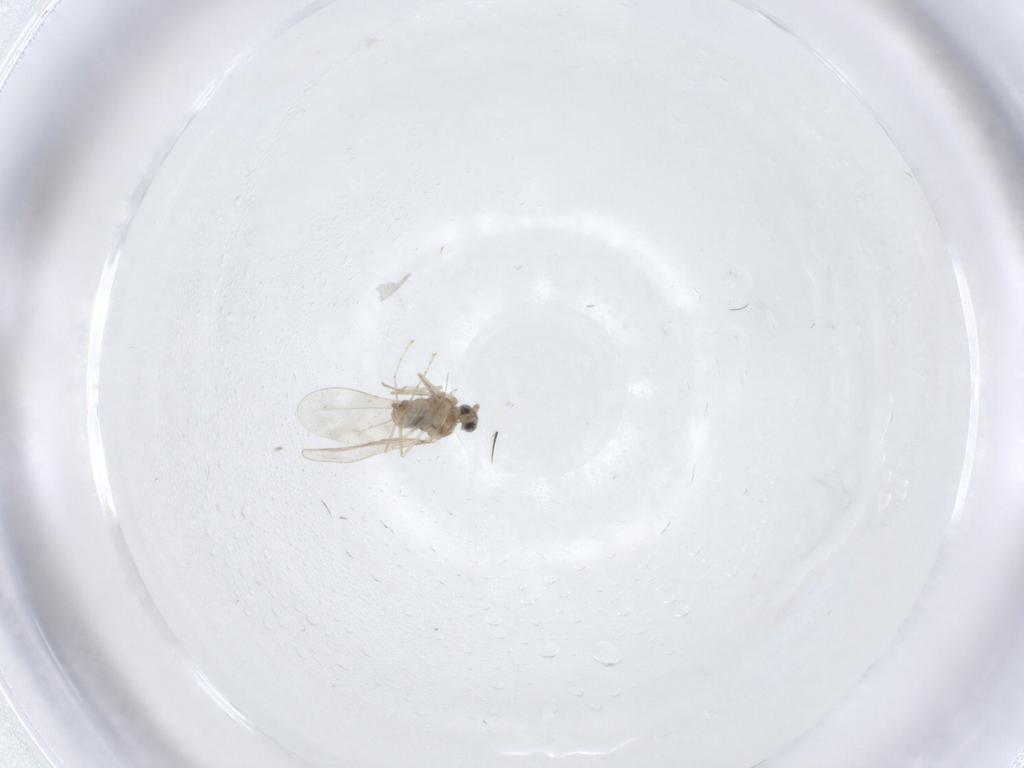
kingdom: Animalia
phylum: Arthropoda
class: Insecta
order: Diptera
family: Cecidomyiidae
